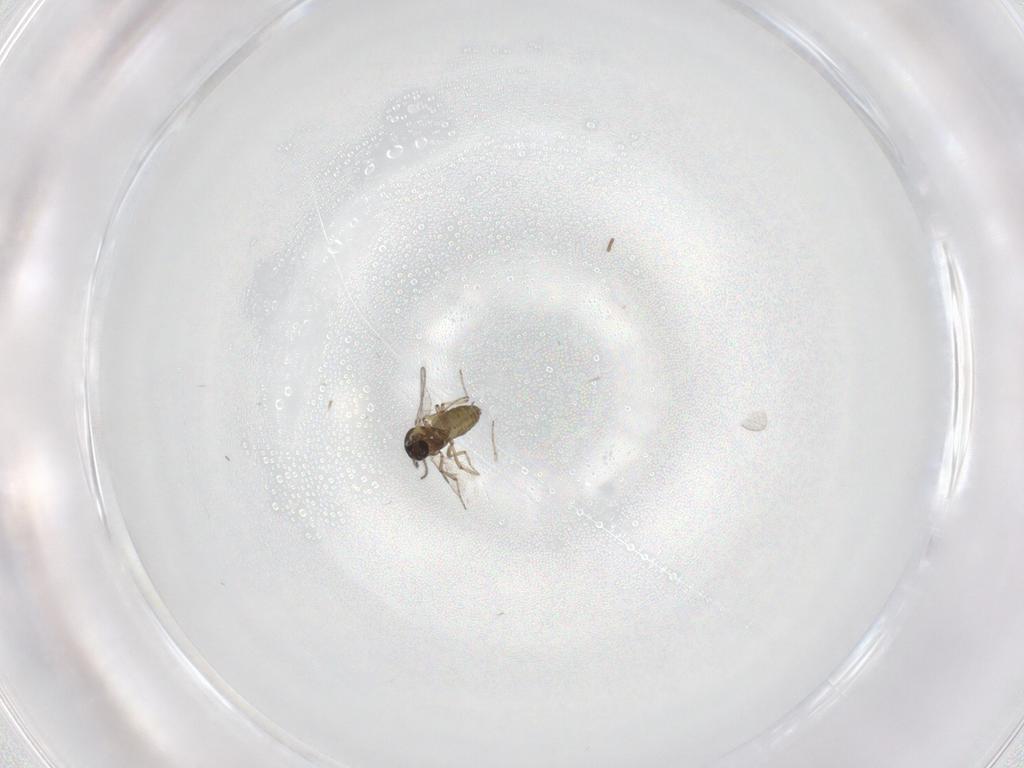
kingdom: Animalia
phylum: Arthropoda
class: Insecta
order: Diptera
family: Ceratopogonidae
